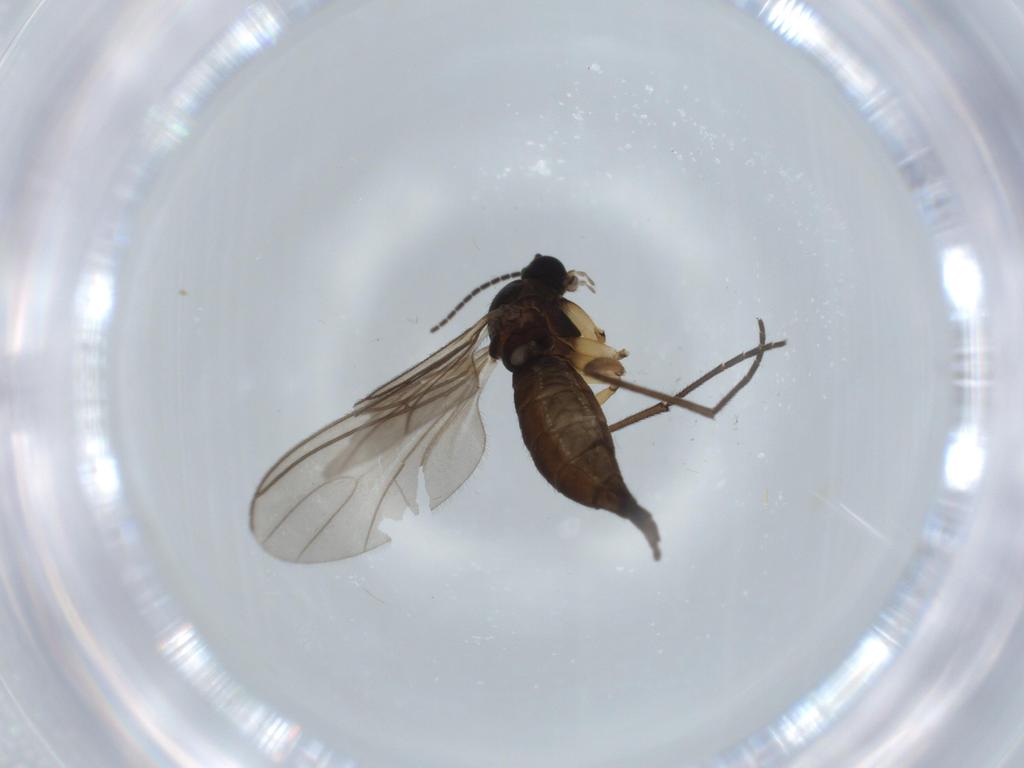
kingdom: Animalia
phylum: Arthropoda
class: Insecta
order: Diptera
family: Sciaridae
